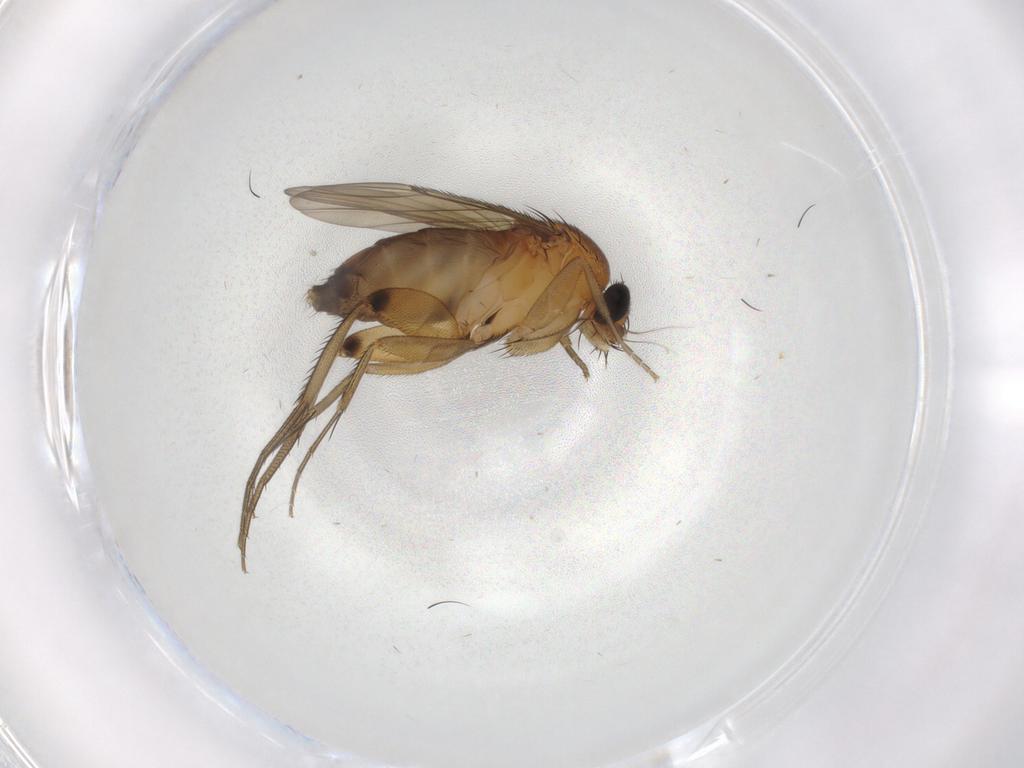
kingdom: Animalia
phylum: Arthropoda
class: Insecta
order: Diptera
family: Phoridae
